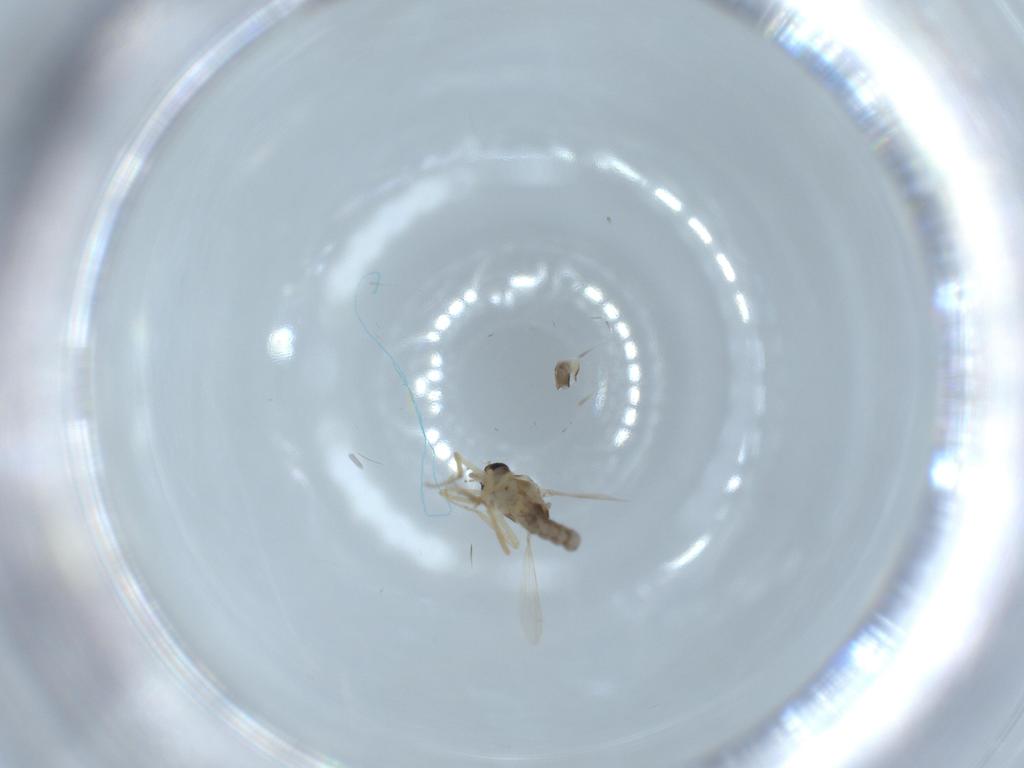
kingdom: Animalia
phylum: Arthropoda
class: Insecta
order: Diptera
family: Ceratopogonidae
